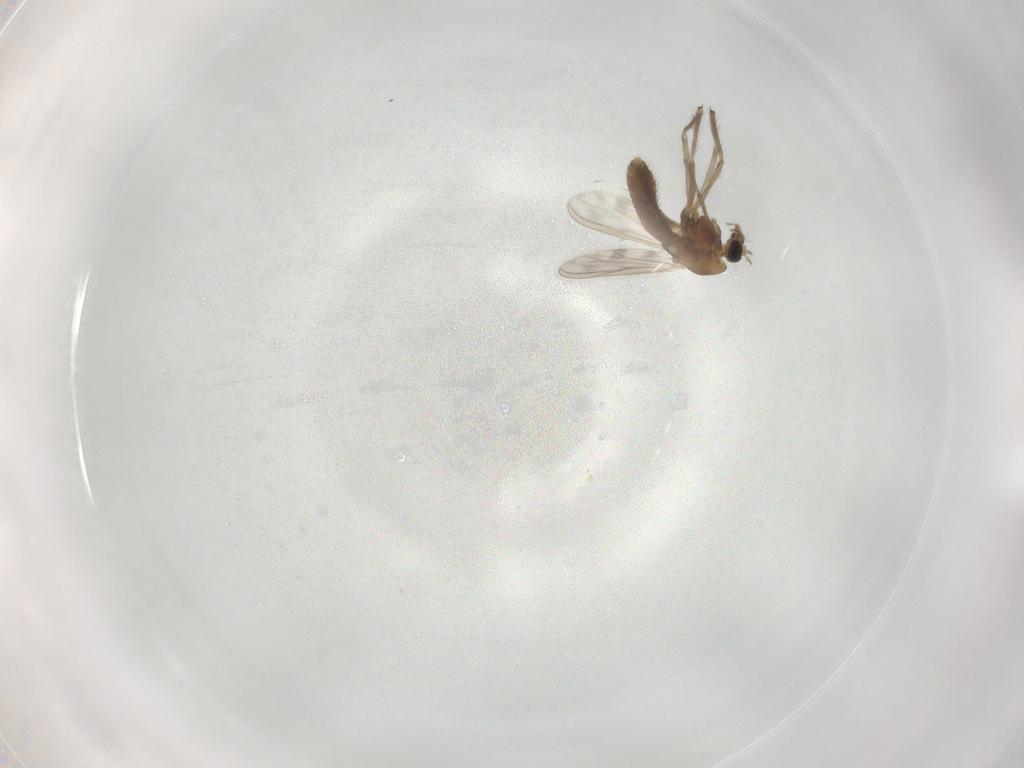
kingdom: Animalia
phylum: Arthropoda
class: Insecta
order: Diptera
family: Chironomidae
